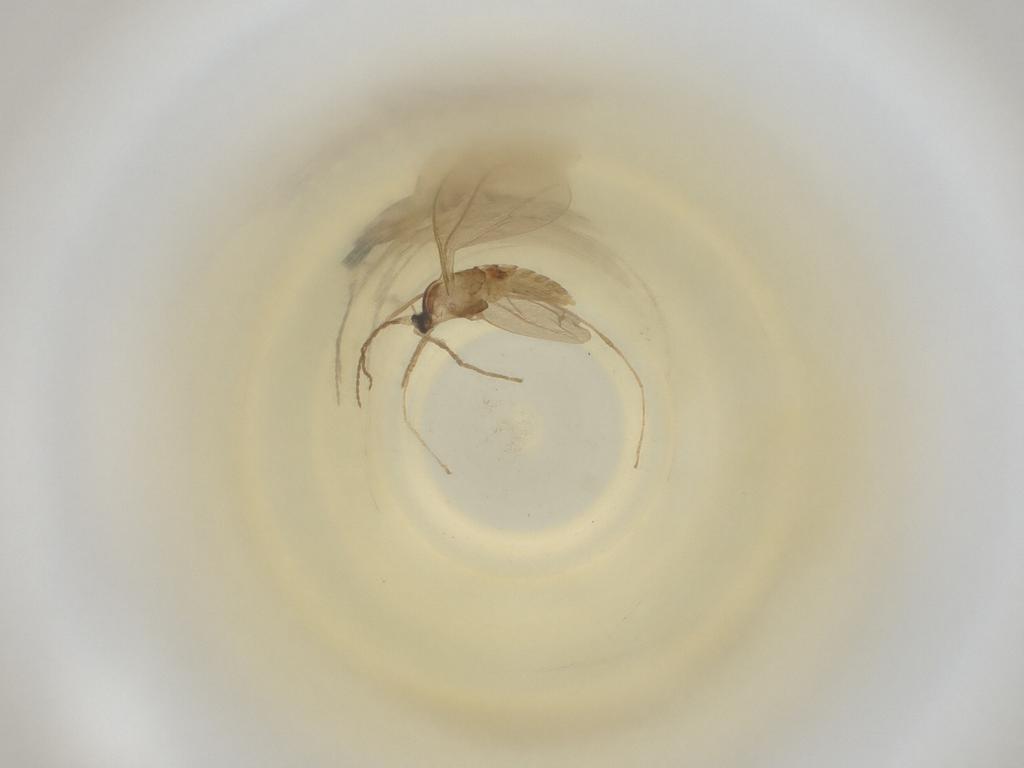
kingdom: Animalia
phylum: Arthropoda
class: Insecta
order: Diptera
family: Cecidomyiidae
